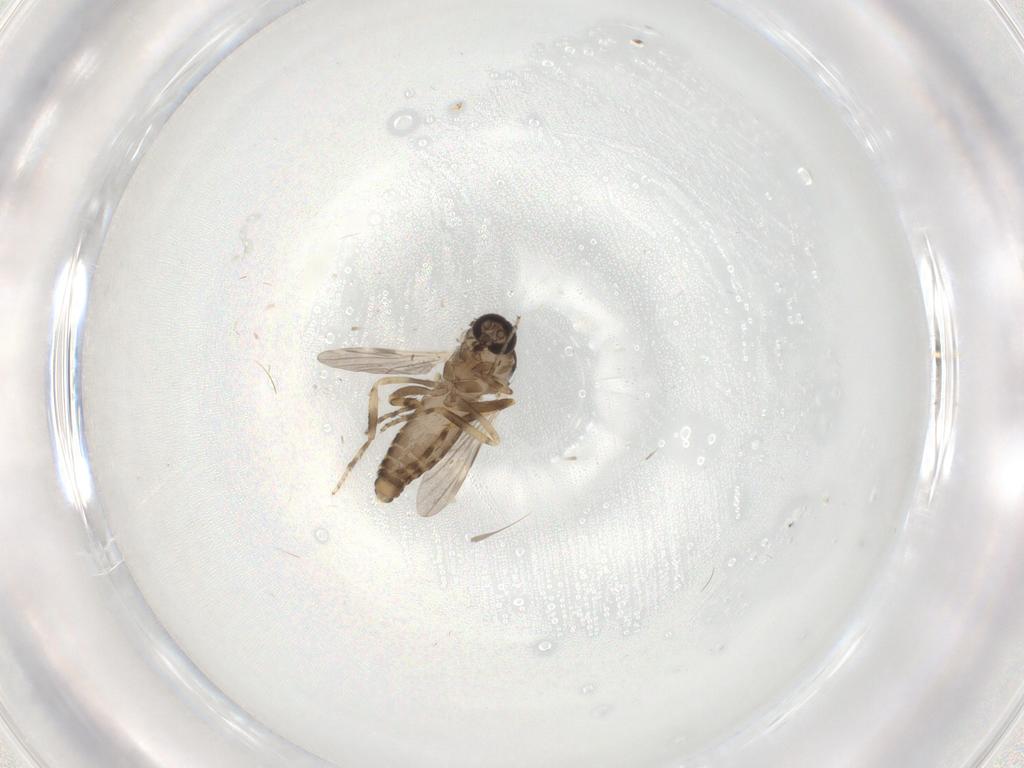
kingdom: Animalia
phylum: Arthropoda
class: Insecta
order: Diptera
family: Ceratopogonidae
